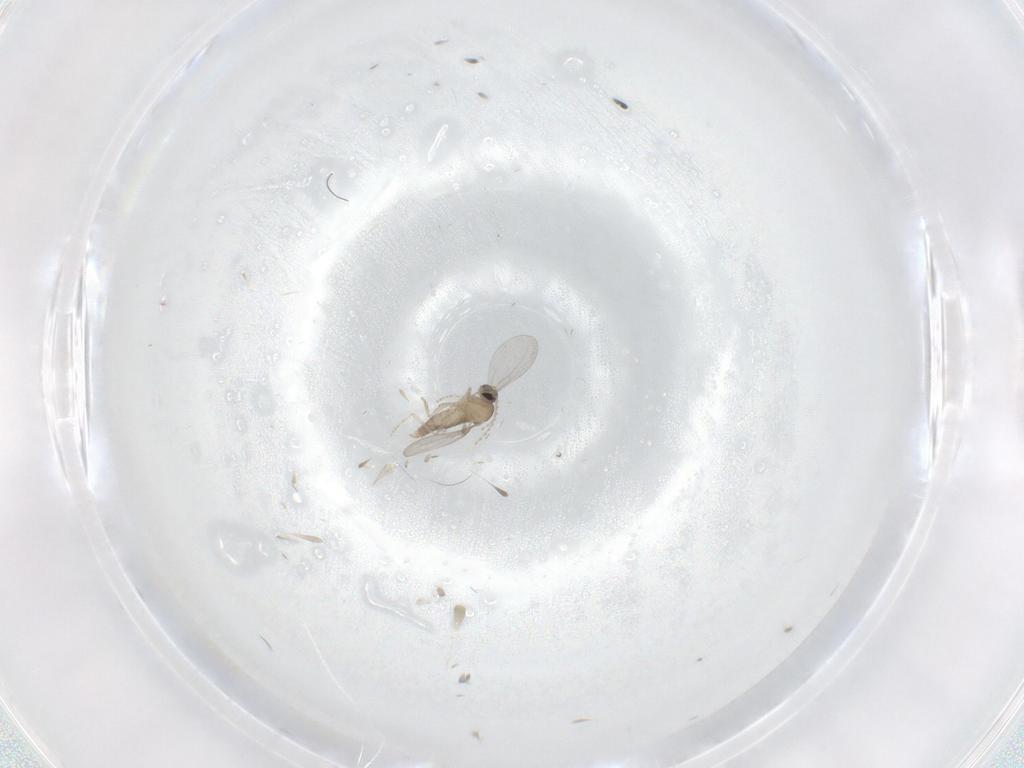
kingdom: Animalia
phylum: Arthropoda
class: Insecta
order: Diptera
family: Cecidomyiidae
